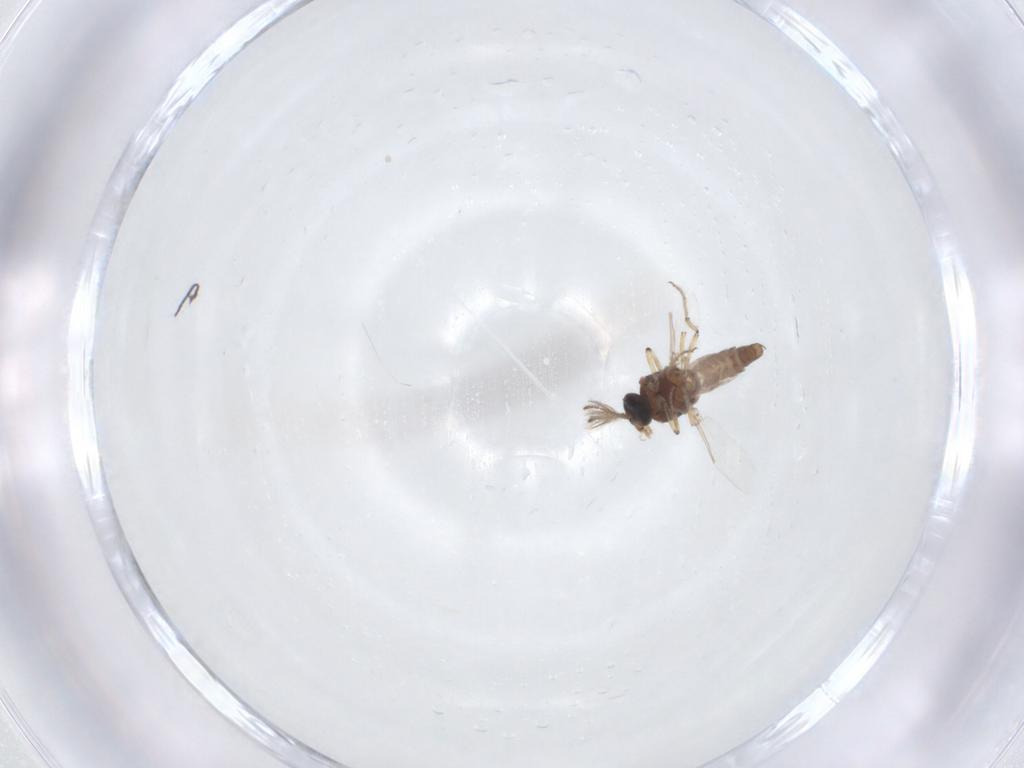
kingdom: Animalia
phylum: Arthropoda
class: Insecta
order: Diptera
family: Ceratopogonidae
